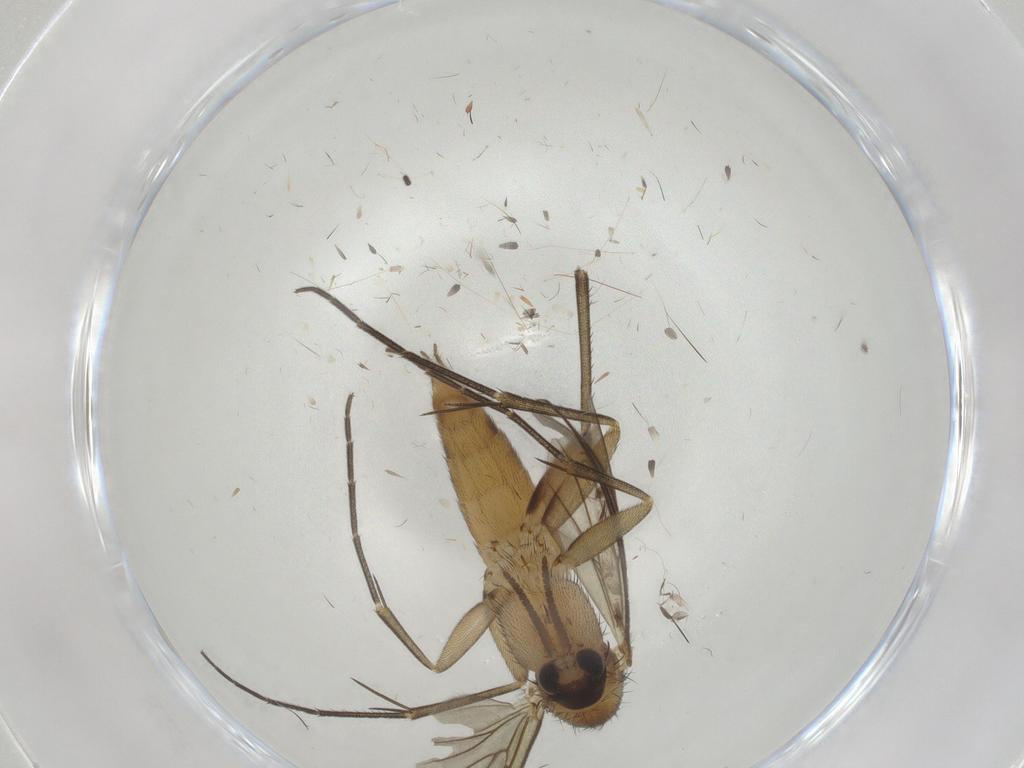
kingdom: Animalia
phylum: Arthropoda
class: Insecta
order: Diptera
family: Mycetophilidae
